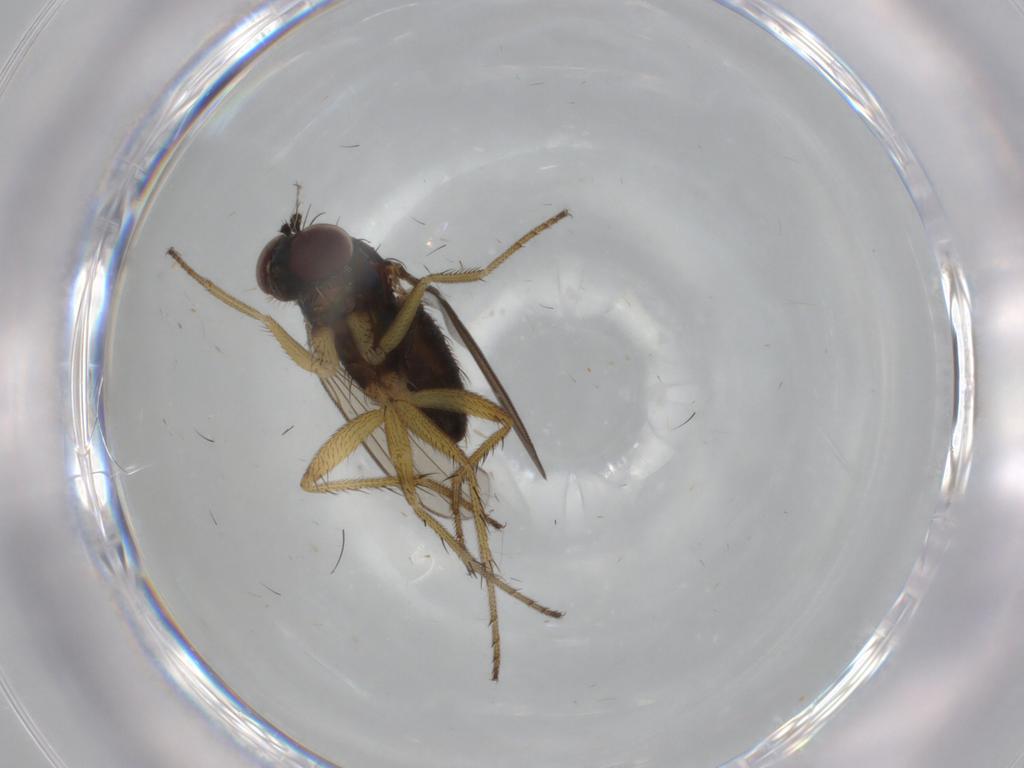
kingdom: Animalia
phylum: Arthropoda
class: Insecta
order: Diptera
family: Dolichopodidae
